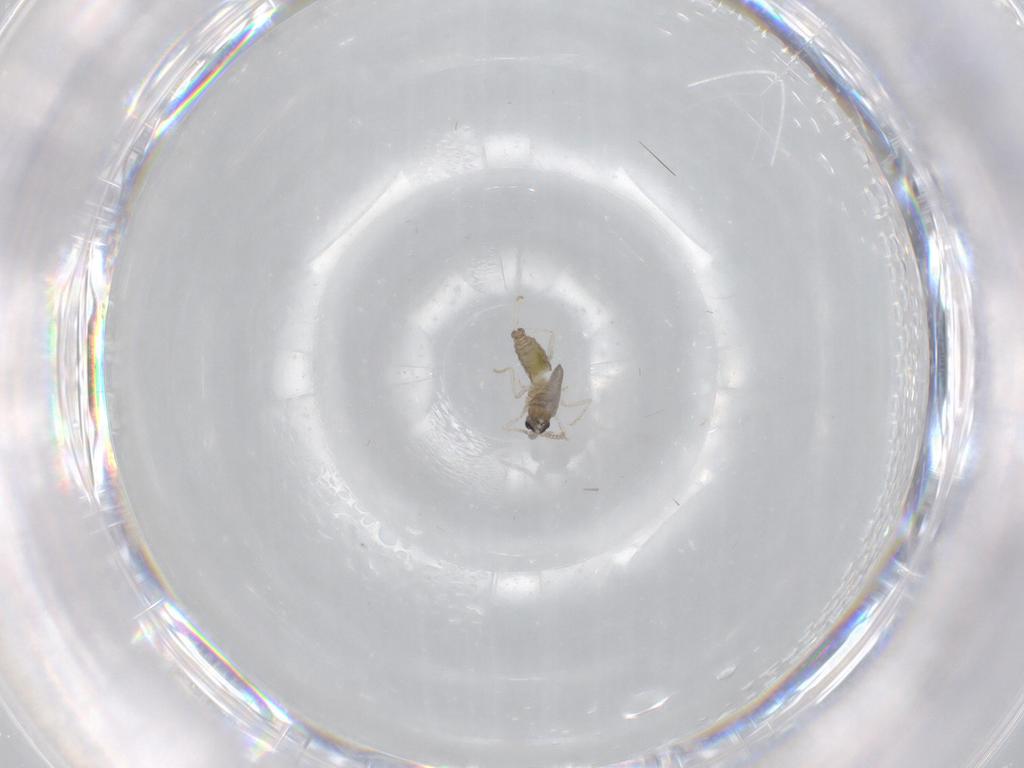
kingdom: Animalia
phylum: Arthropoda
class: Insecta
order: Diptera
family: Cecidomyiidae
